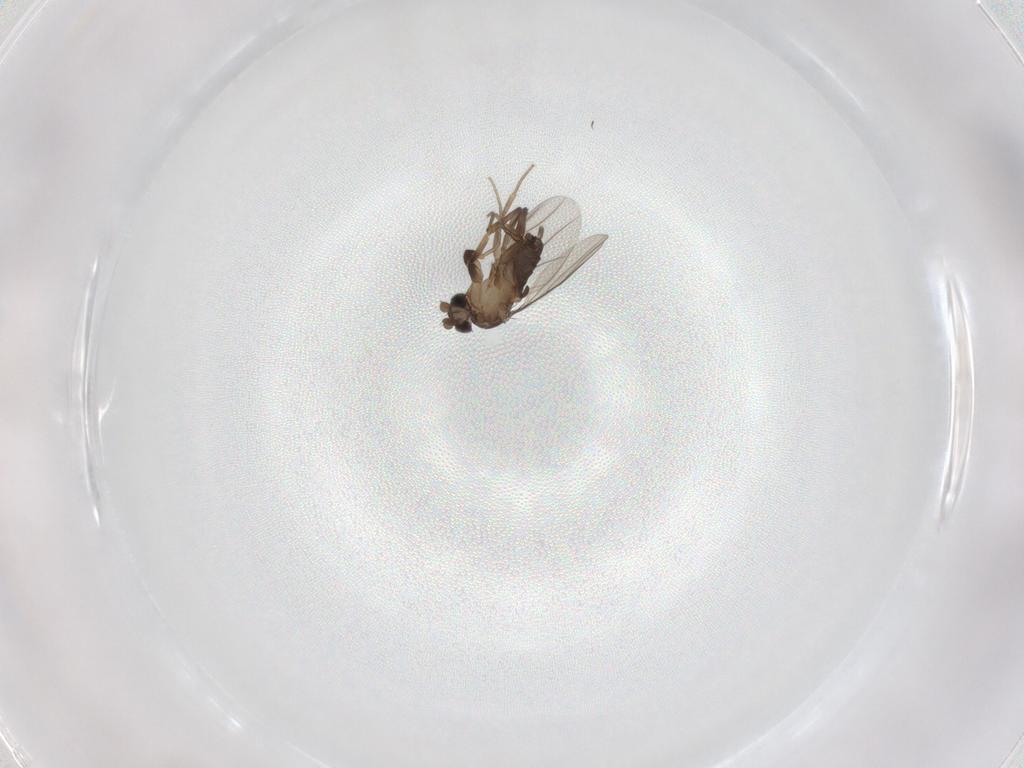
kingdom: Animalia
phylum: Arthropoda
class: Insecta
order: Diptera
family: Phoridae
